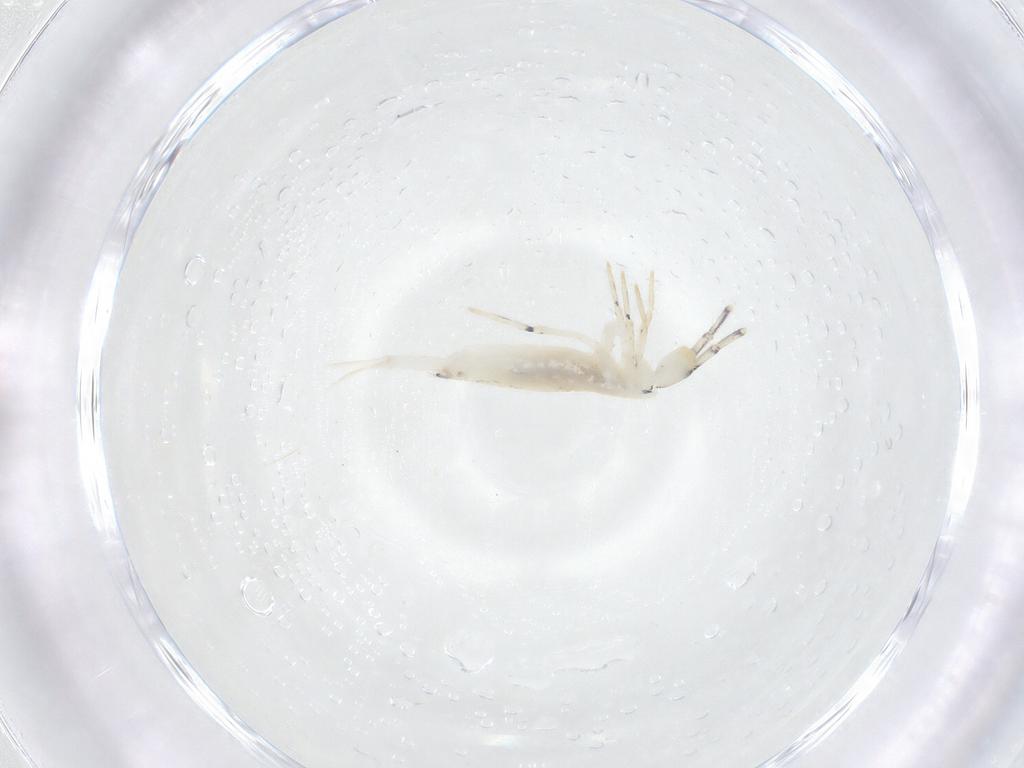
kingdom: Animalia
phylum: Arthropoda
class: Collembola
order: Entomobryomorpha
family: Entomobryidae
